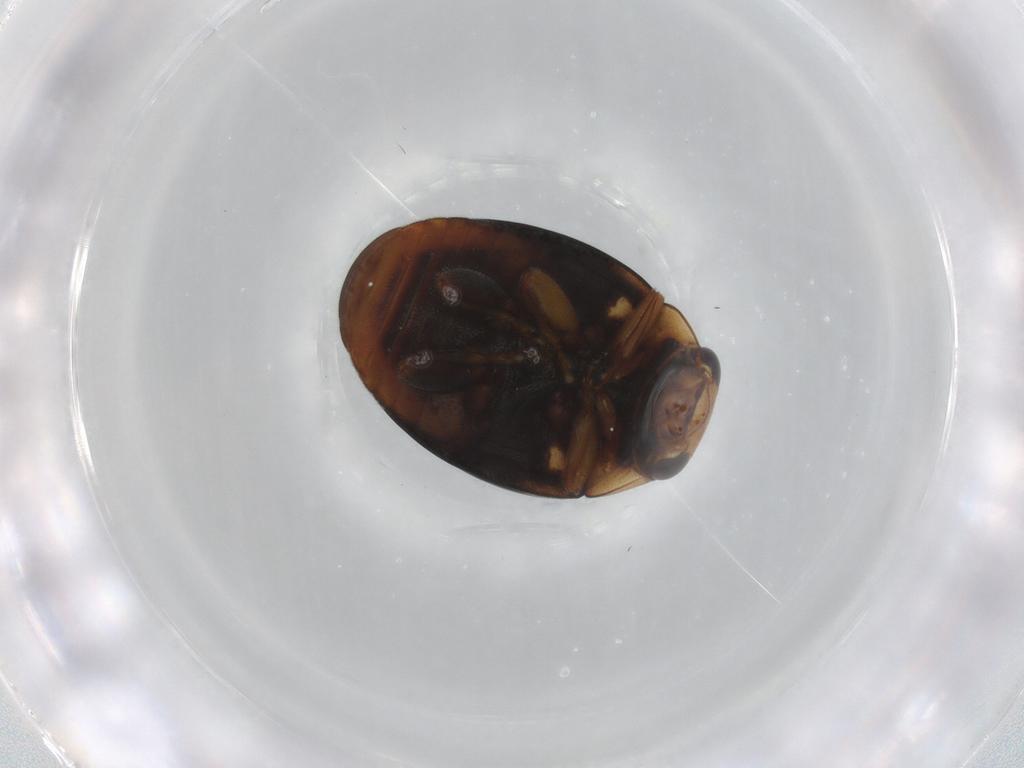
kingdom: Animalia
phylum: Arthropoda
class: Insecta
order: Coleoptera
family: Coccinellidae
